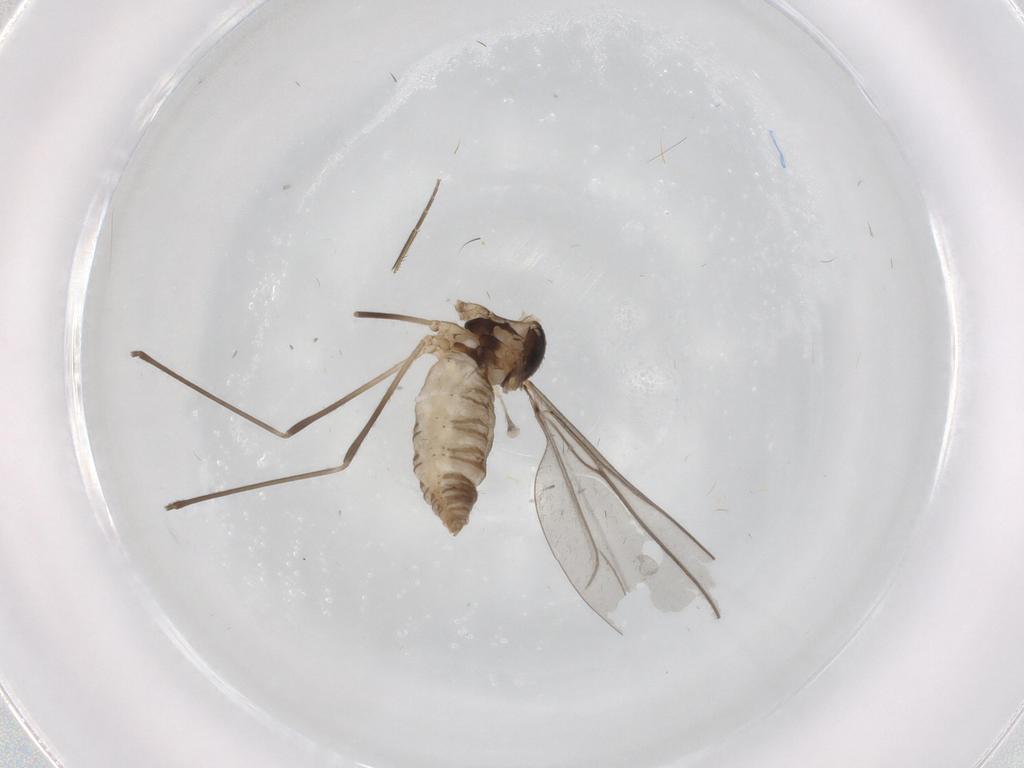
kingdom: Animalia
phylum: Arthropoda
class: Insecta
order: Diptera
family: Cecidomyiidae
